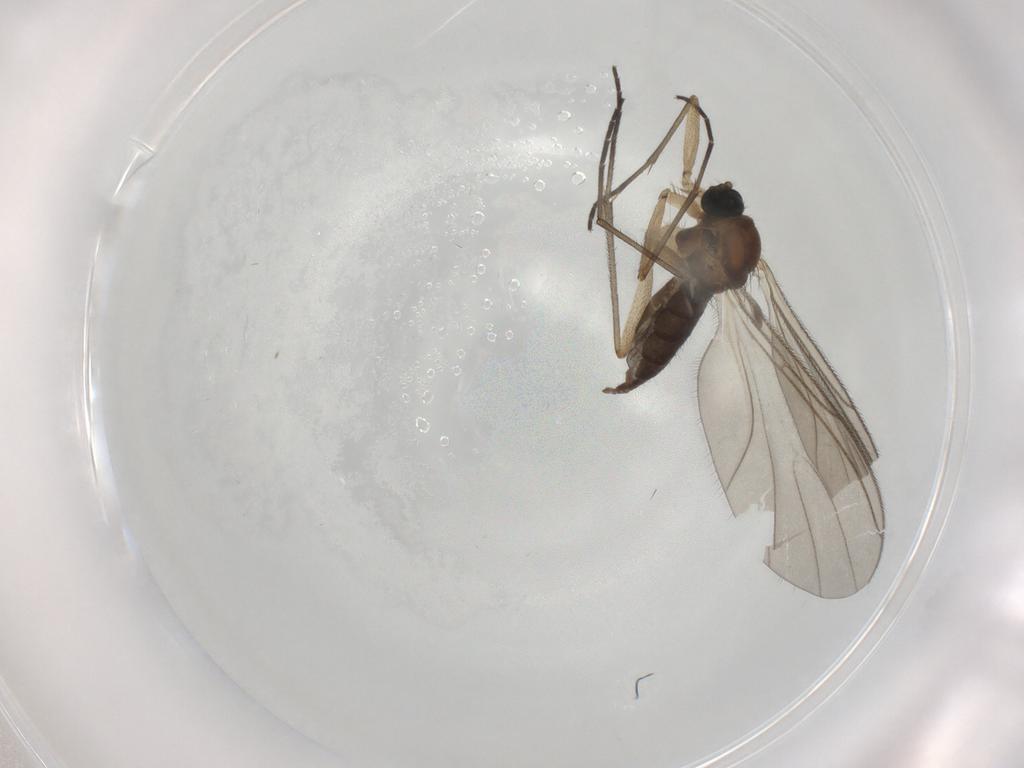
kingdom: Animalia
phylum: Arthropoda
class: Insecta
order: Diptera
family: Sciaridae
